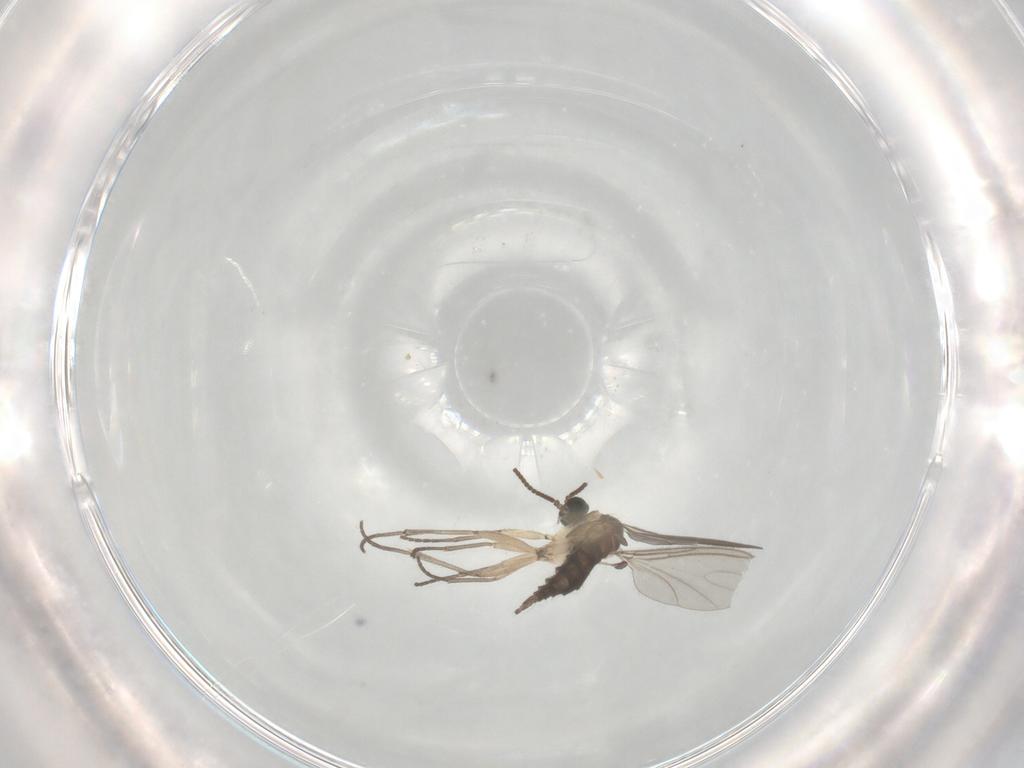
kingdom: Animalia
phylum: Arthropoda
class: Insecta
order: Diptera
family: Sciaridae
